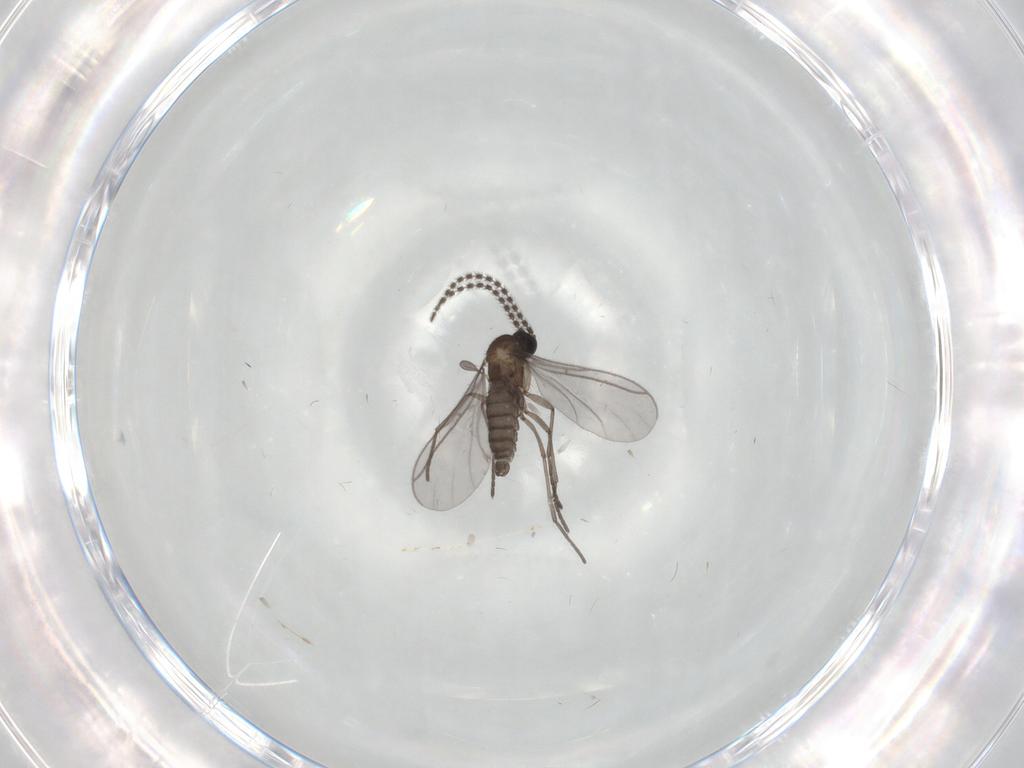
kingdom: Animalia
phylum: Arthropoda
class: Insecta
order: Diptera
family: Cecidomyiidae
